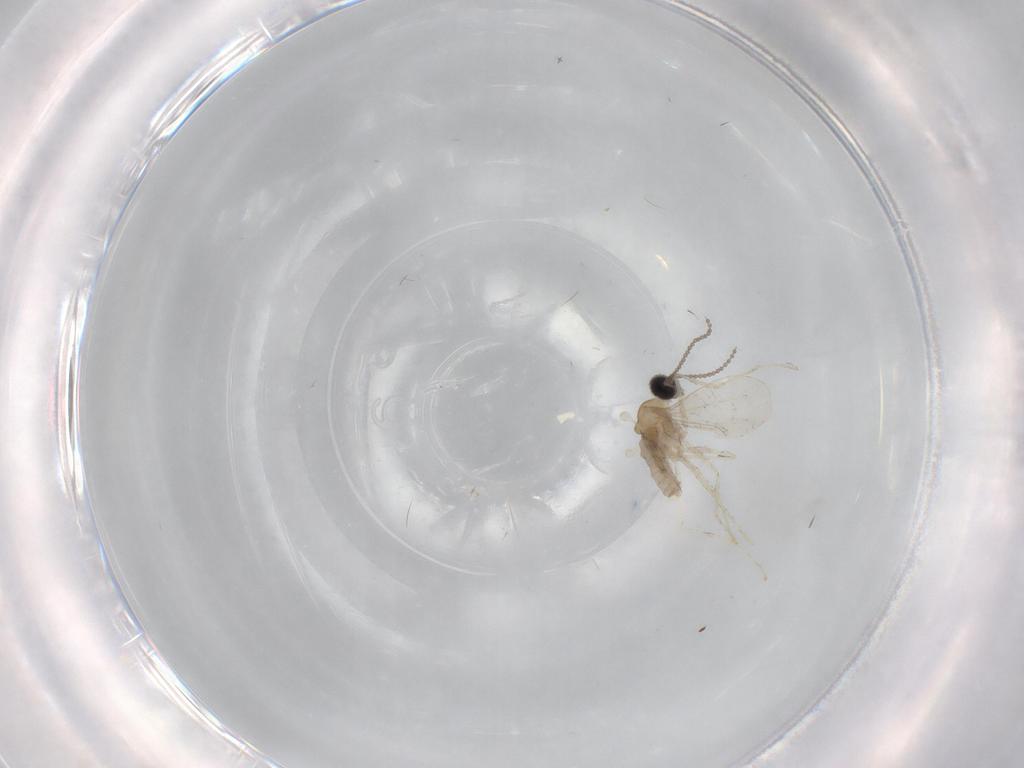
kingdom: Animalia
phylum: Arthropoda
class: Insecta
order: Diptera
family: Cecidomyiidae
